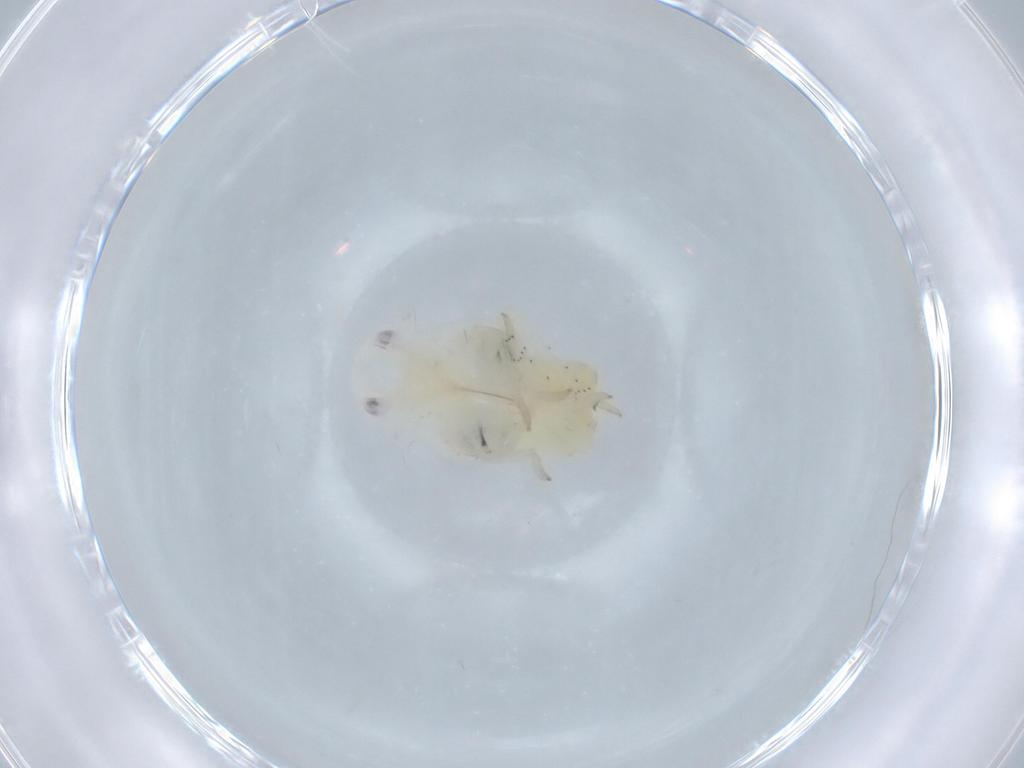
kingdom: Animalia
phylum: Arthropoda
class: Insecta
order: Hemiptera
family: Flatidae
